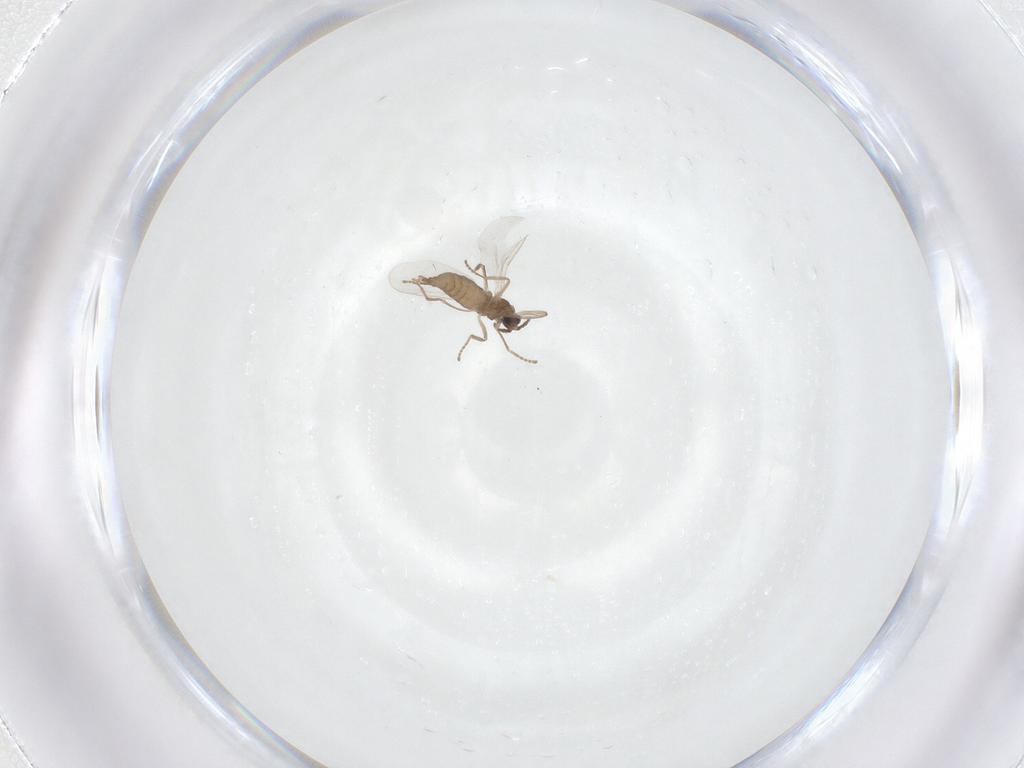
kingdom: Animalia
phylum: Arthropoda
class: Insecta
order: Diptera
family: Cecidomyiidae
